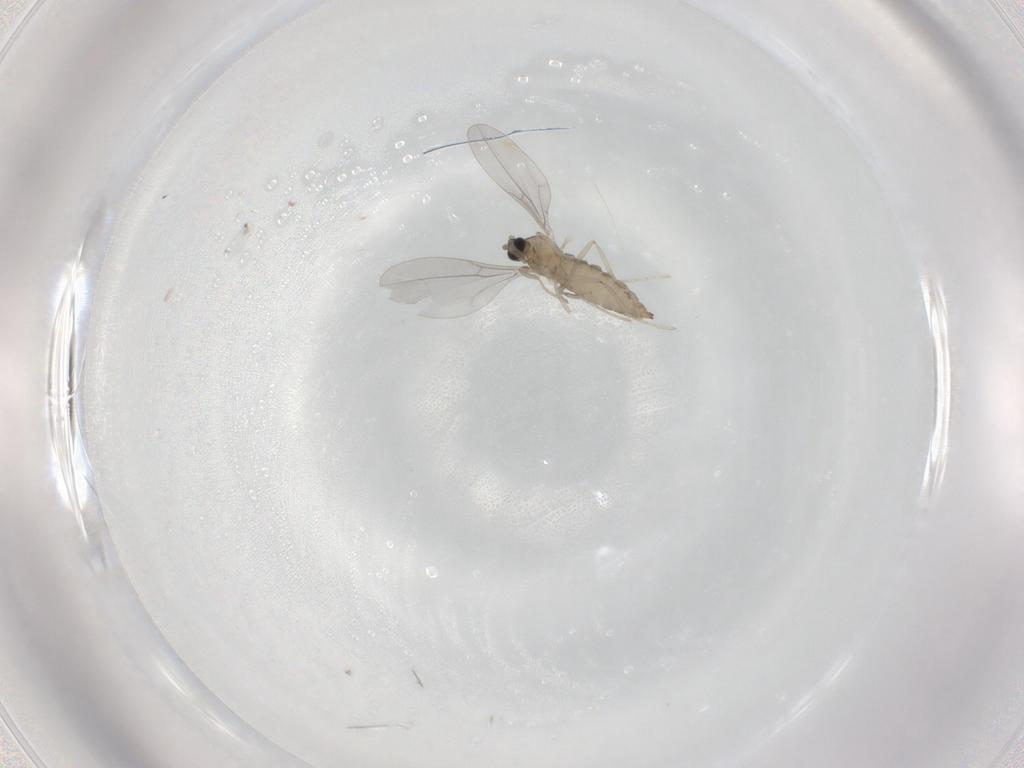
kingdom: Animalia
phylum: Arthropoda
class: Insecta
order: Diptera
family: Cecidomyiidae
